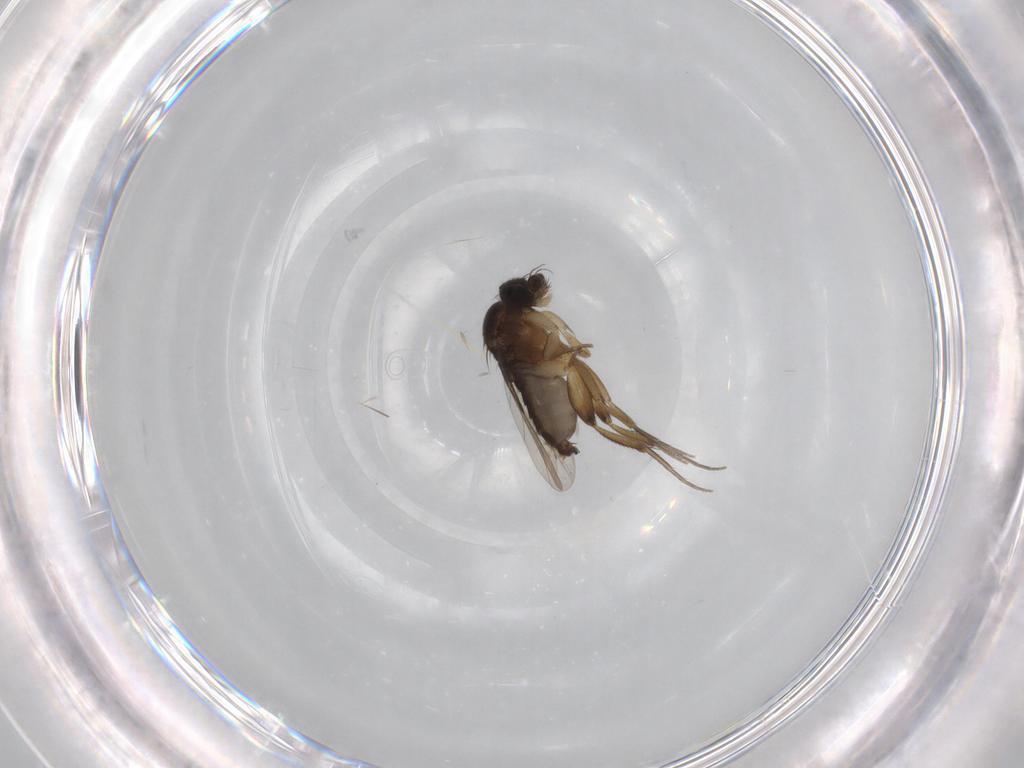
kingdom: Animalia
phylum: Arthropoda
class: Insecta
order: Diptera
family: Phoridae
